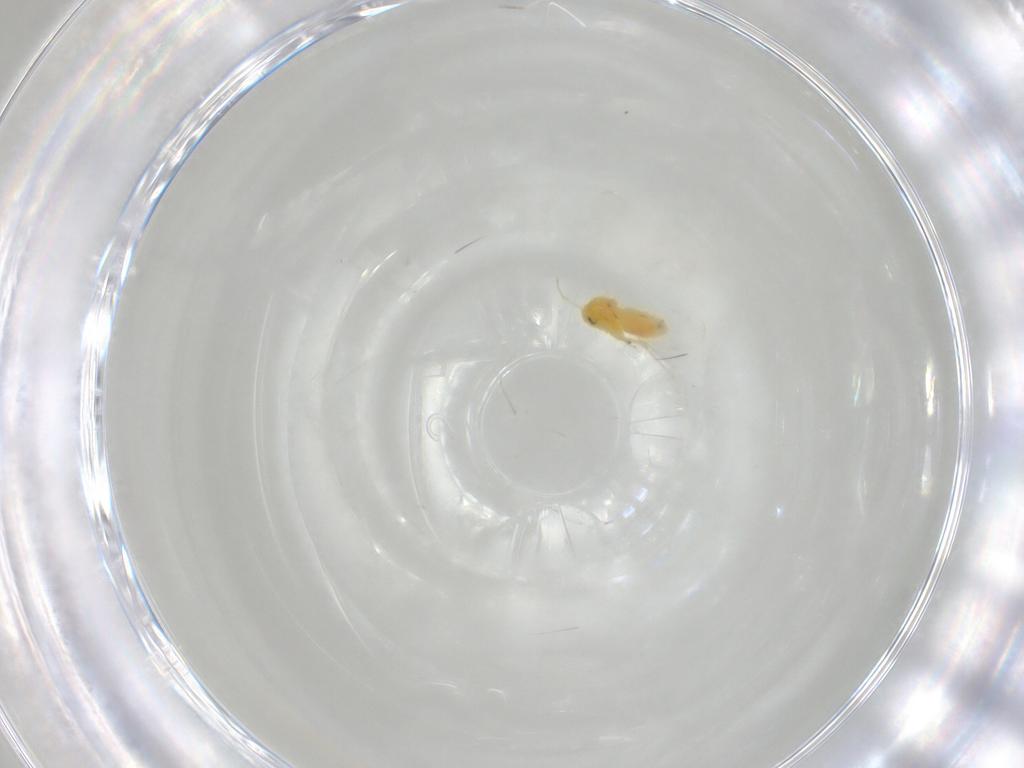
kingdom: Animalia
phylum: Arthropoda
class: Insecta
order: Hemiptera
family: Aleyrodidae
